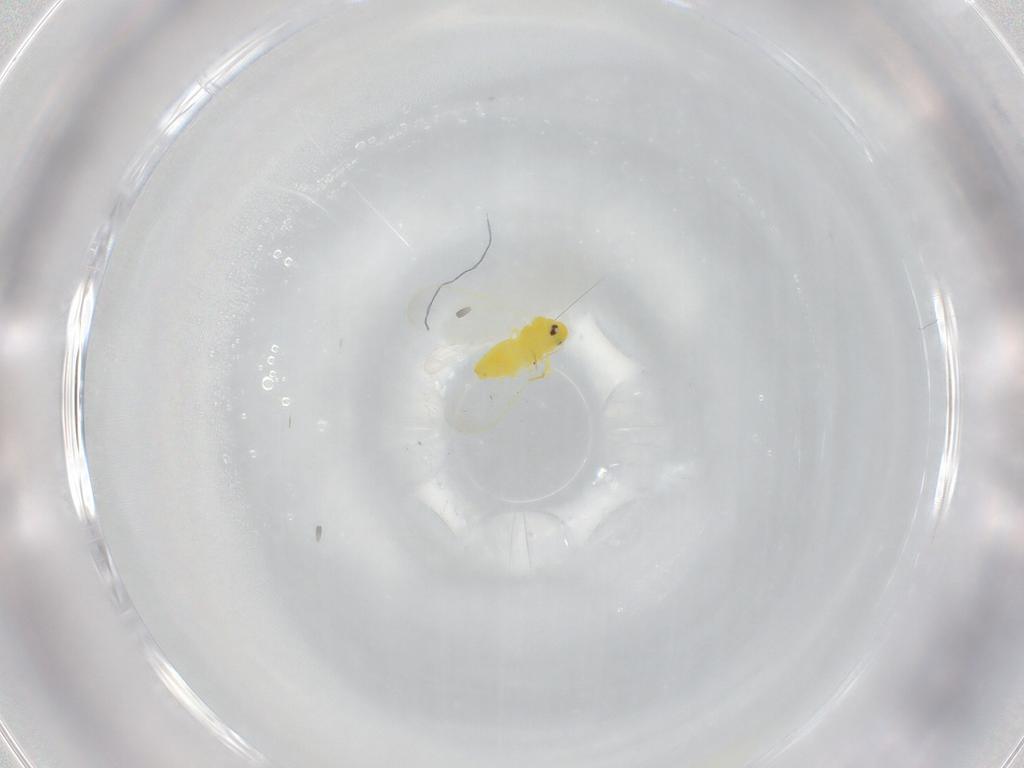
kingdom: Animalia
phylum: Arthropoda
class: Insecta
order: Hemiptera
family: Aleyrodidae
